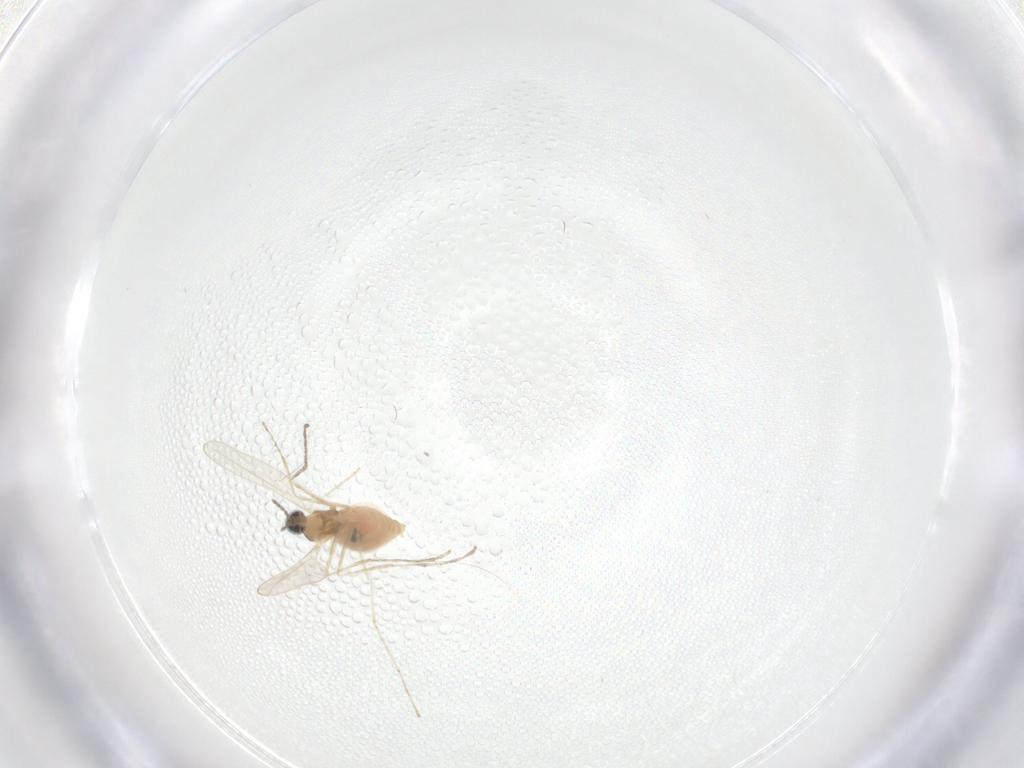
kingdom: Animalia
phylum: Arthropoda
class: Insecta
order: Diptera
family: Cecidomyiidae
